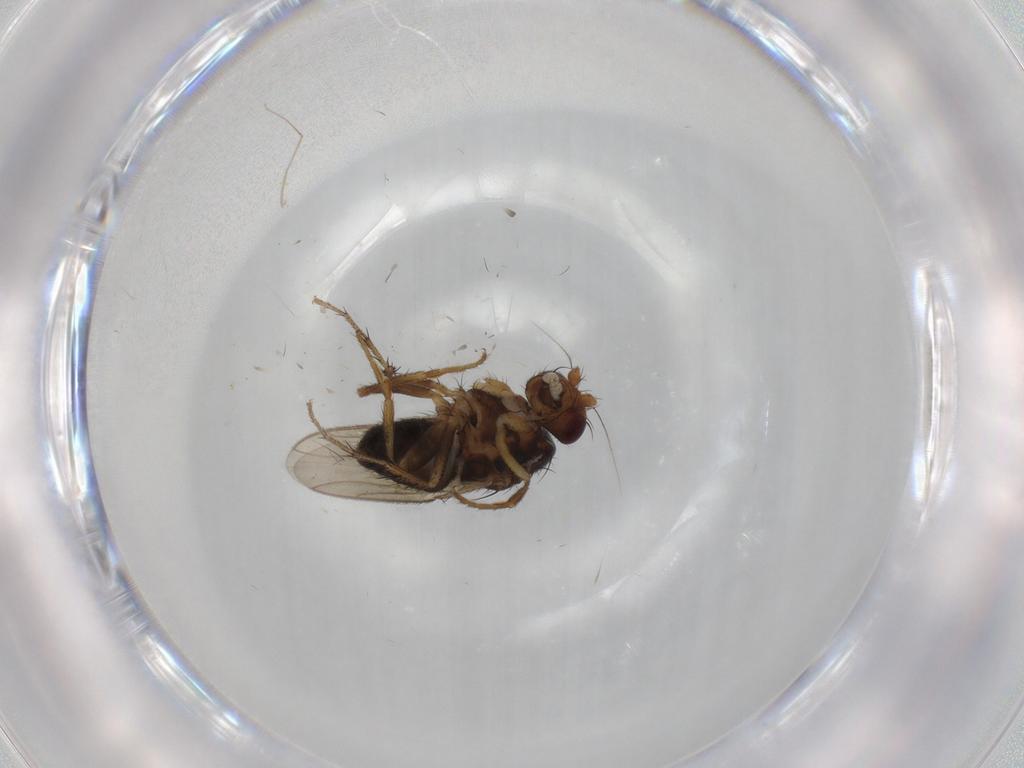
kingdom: Animalia
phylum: Arthropoda
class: Insecta
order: Diptera
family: Sphaeroceridae
